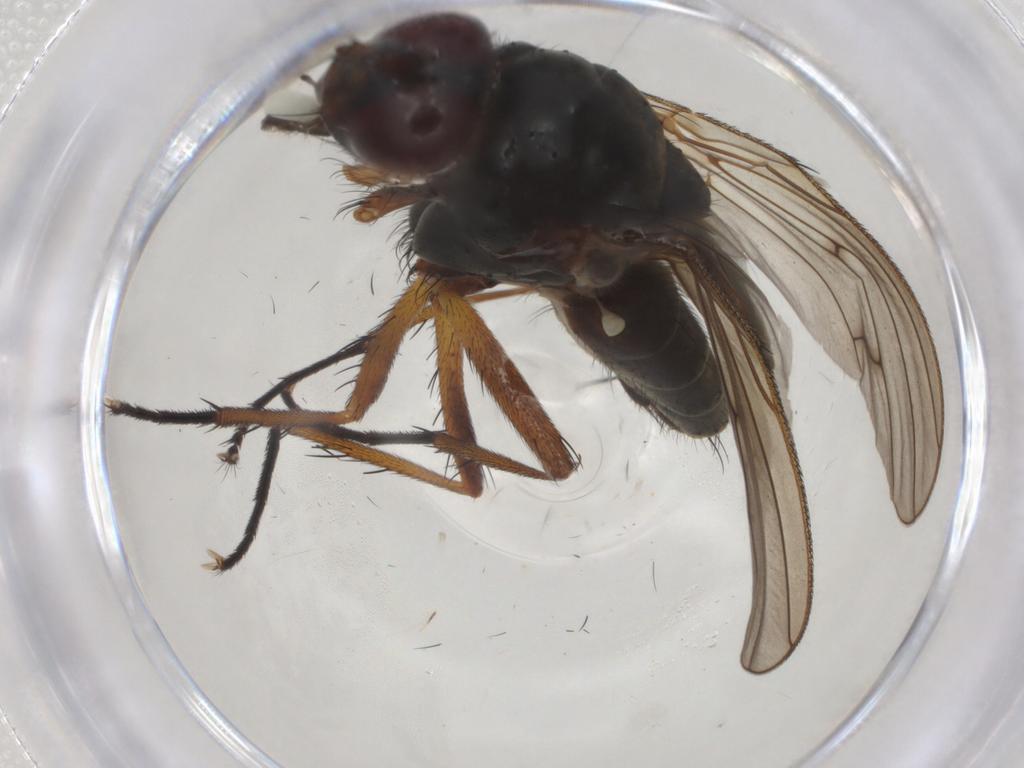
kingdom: Animalia
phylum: Arthropoda
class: Insecta
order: Diptera
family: Anthomyiidae
